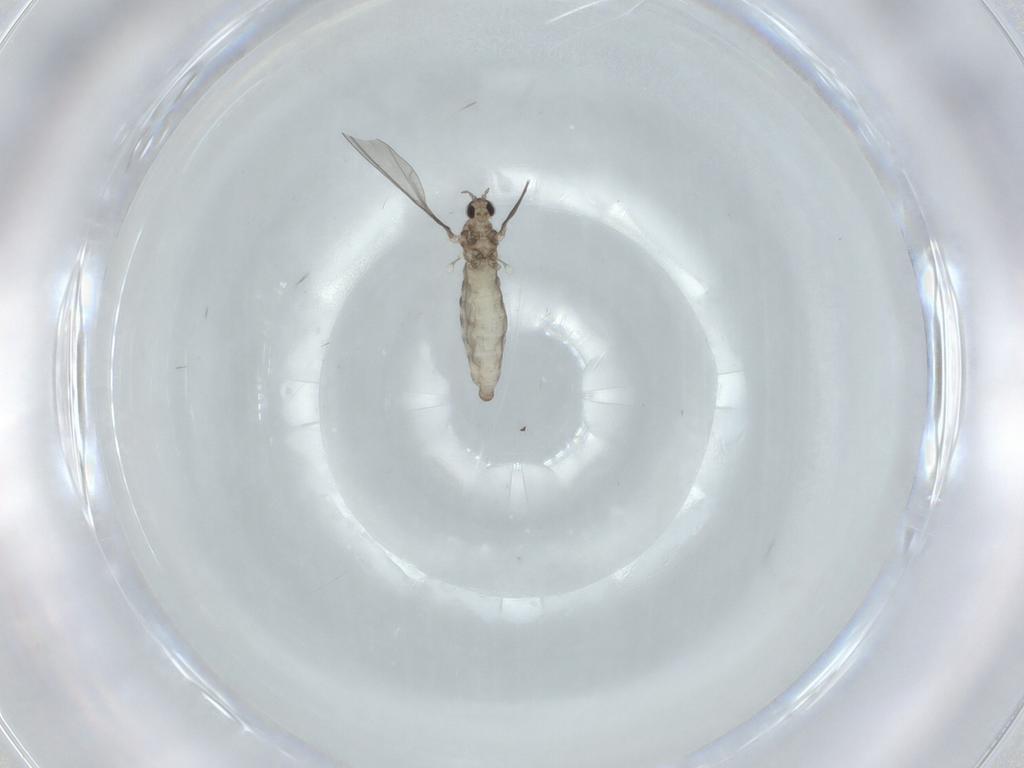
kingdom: Animalia
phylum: Arthropoda
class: Insecta
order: Diptera
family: Cecidomyiidae
